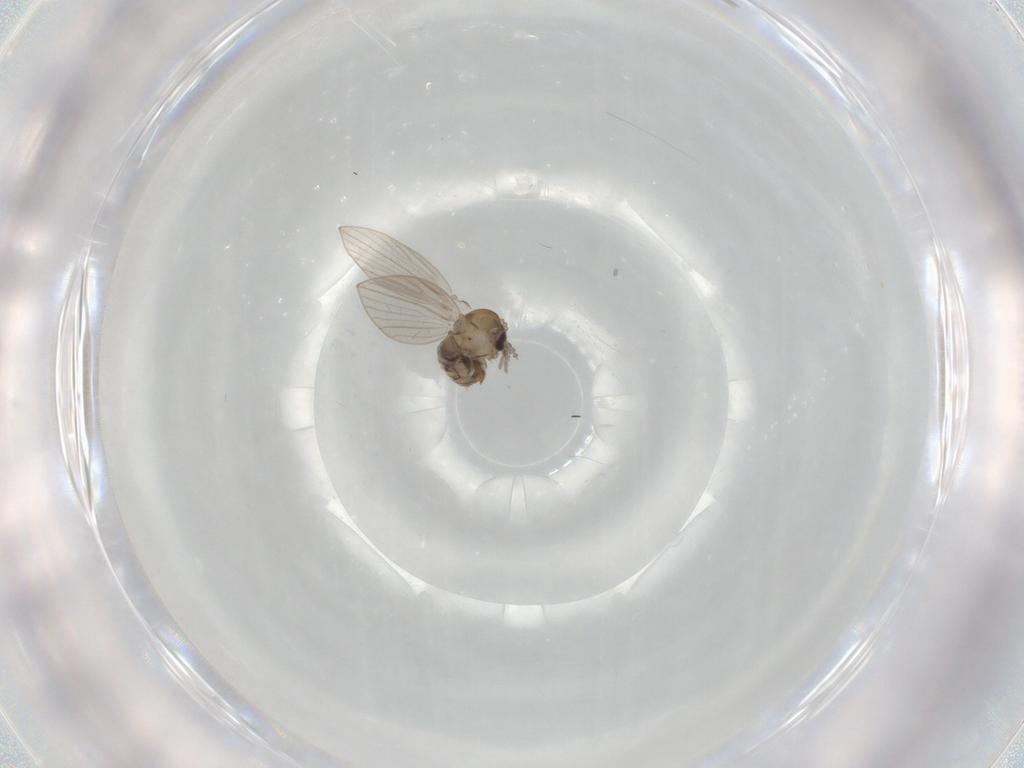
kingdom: Animalia
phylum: Arthropoda
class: Insecta
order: Diptera
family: Psychodidae
